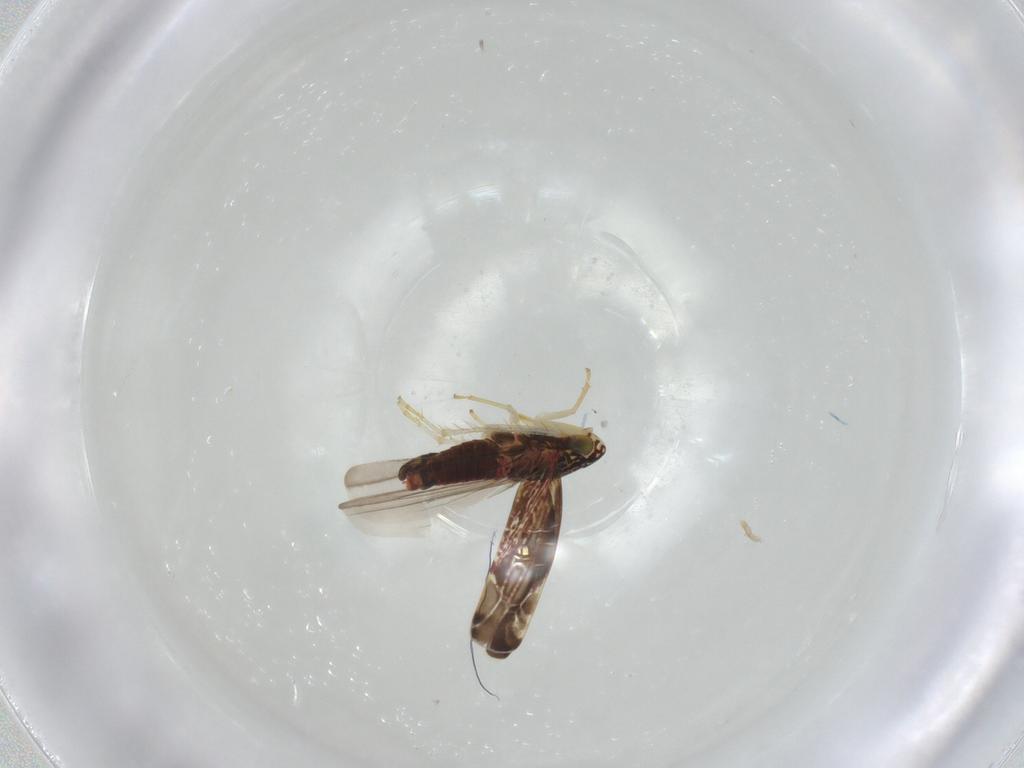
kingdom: Animalia
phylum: Arthropoda
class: Insecta
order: Hemiptera
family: Cicadellidae
